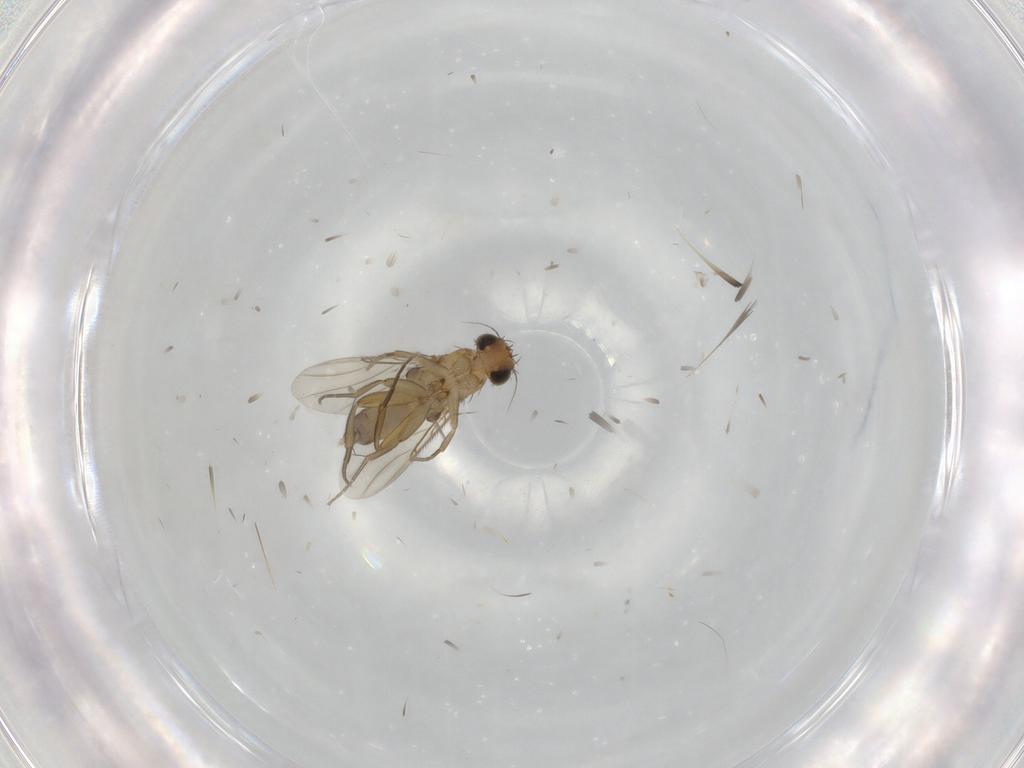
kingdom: Animalia
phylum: Arthropoda
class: Insecta
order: Diptera
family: Phoridae
